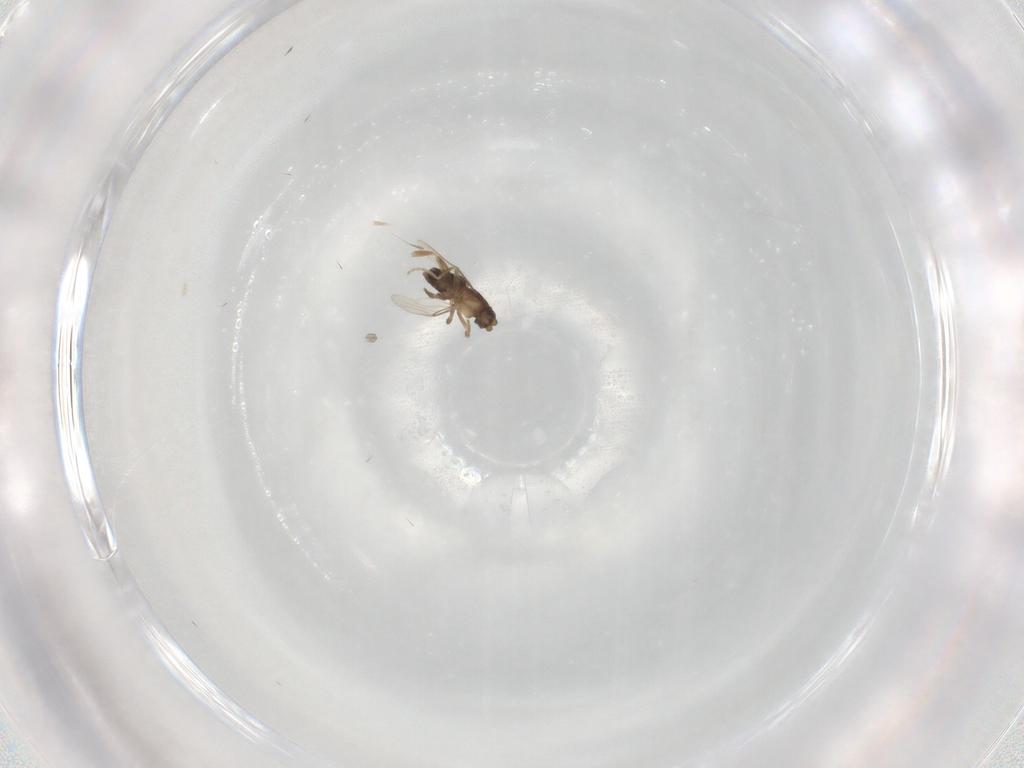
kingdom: Animalia
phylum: Arthropoda
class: Insecta
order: Diptera
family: Phoridae
